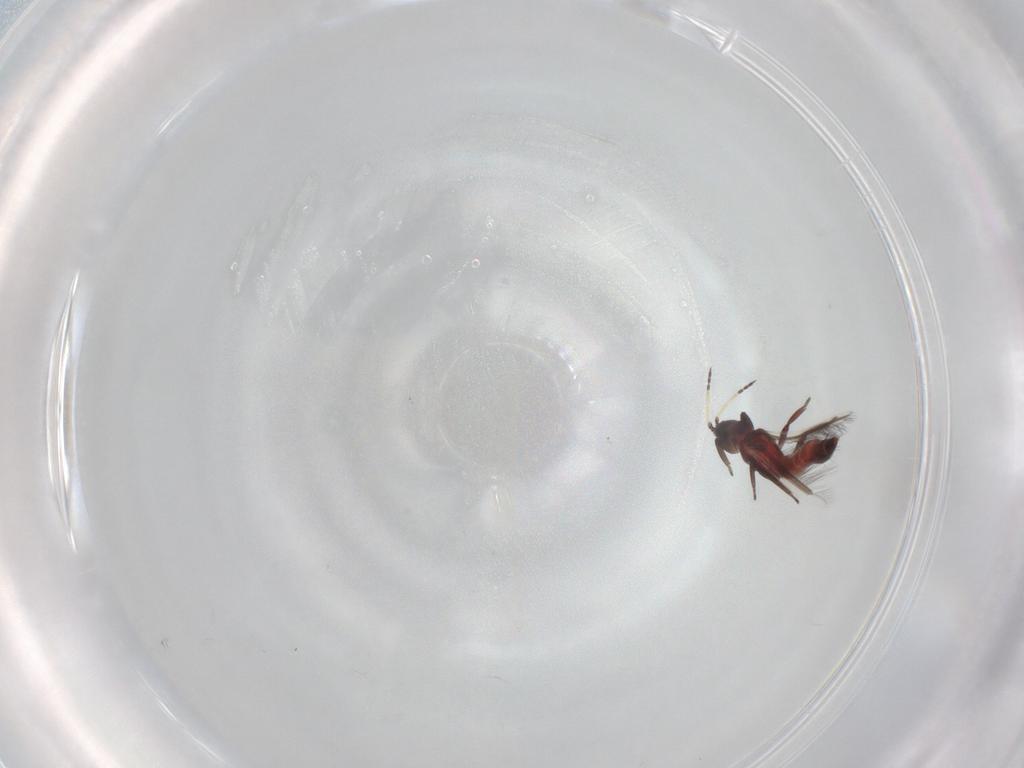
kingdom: Animalia
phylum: Arthropoda
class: Insecta
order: Thysanoptera
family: Aeolothripidae
